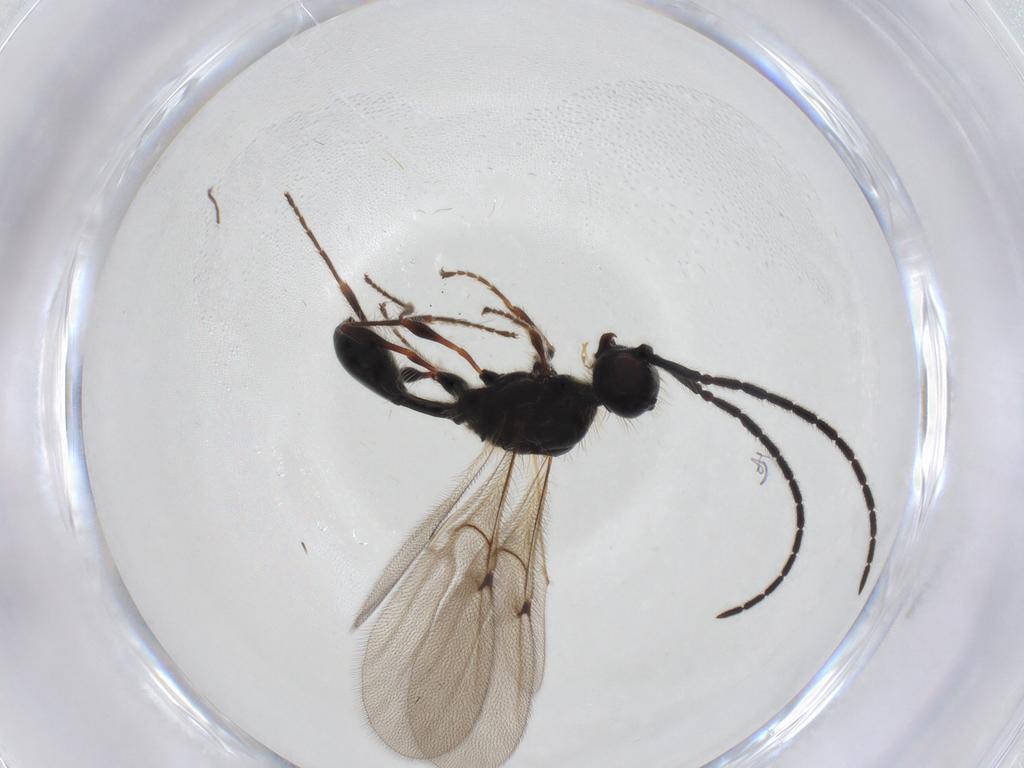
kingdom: Animalia
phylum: Arthropoda
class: Insecta
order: Hymenoptera
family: Diapriidae
